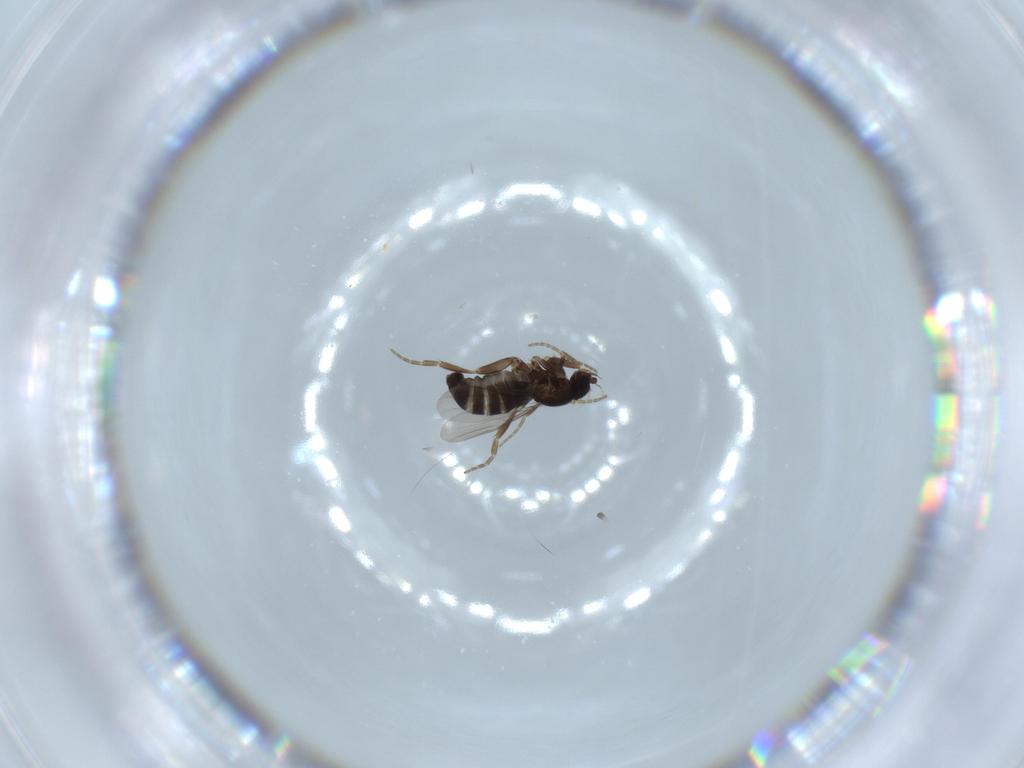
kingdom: Animalia
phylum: Arthropoda
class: Insecta
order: Diptera
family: Phoridae
